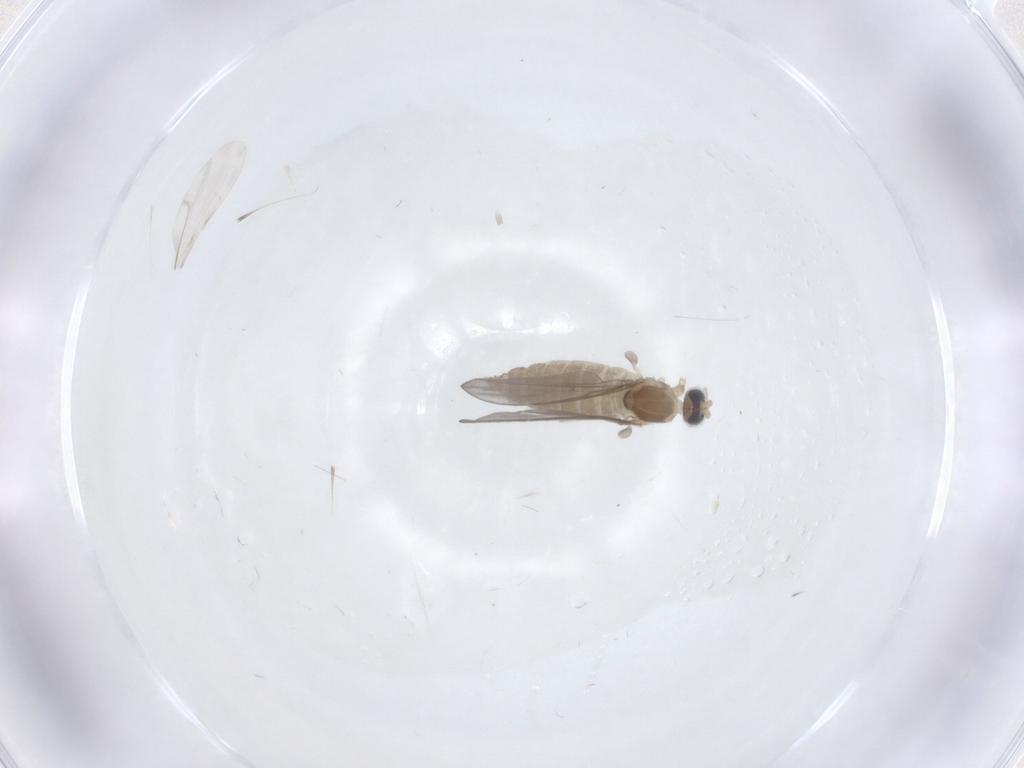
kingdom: Animalia
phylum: Arthropoda
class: Insecta
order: Diptera
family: Cecidomyiidae
